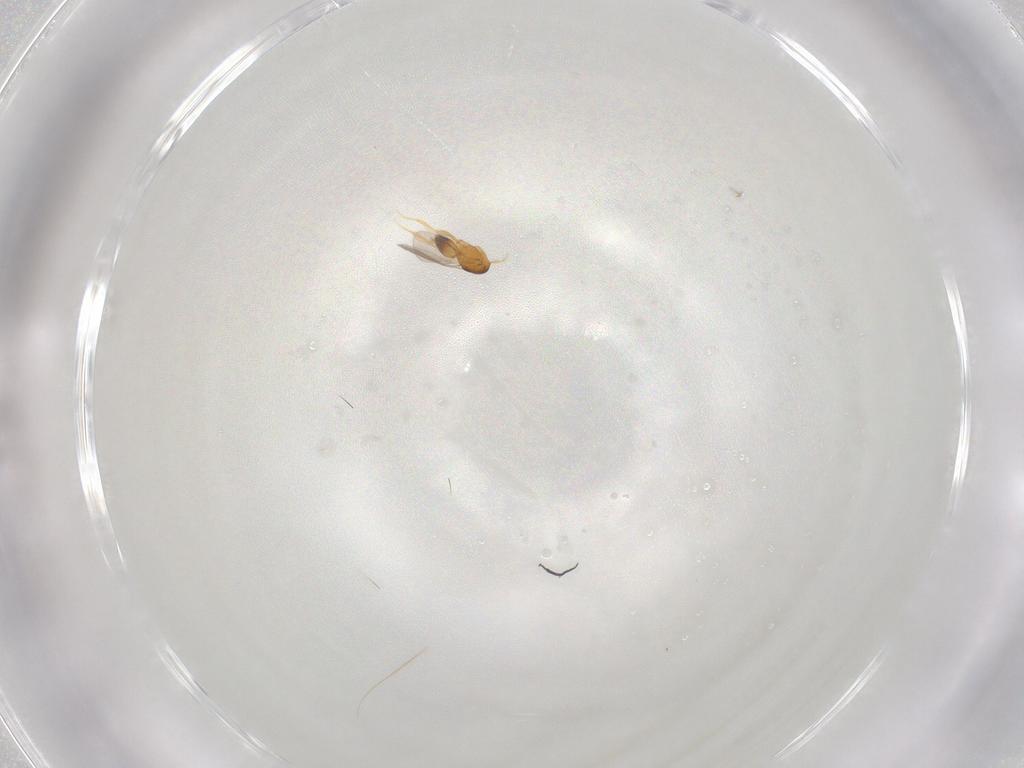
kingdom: Animalia
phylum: Arthropoda
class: Insecta
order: Hymenoptera
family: Ceraphronidae
